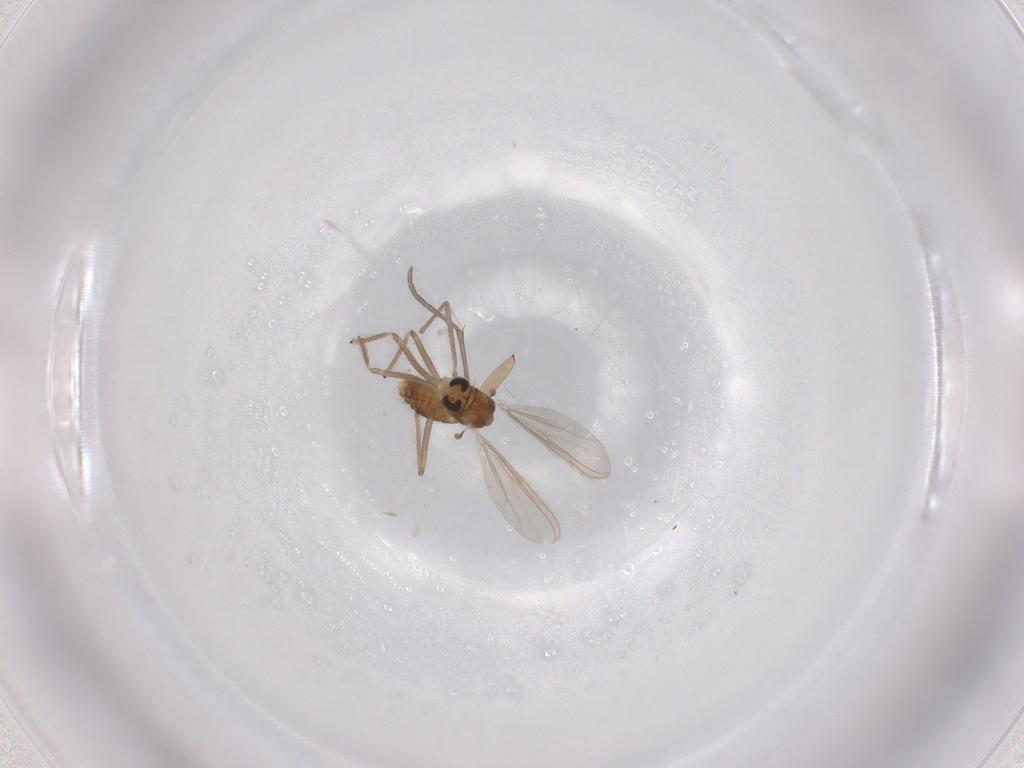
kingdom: Animalia
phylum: Arthropoda
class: Insecta
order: Diptera
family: Chironomidae
